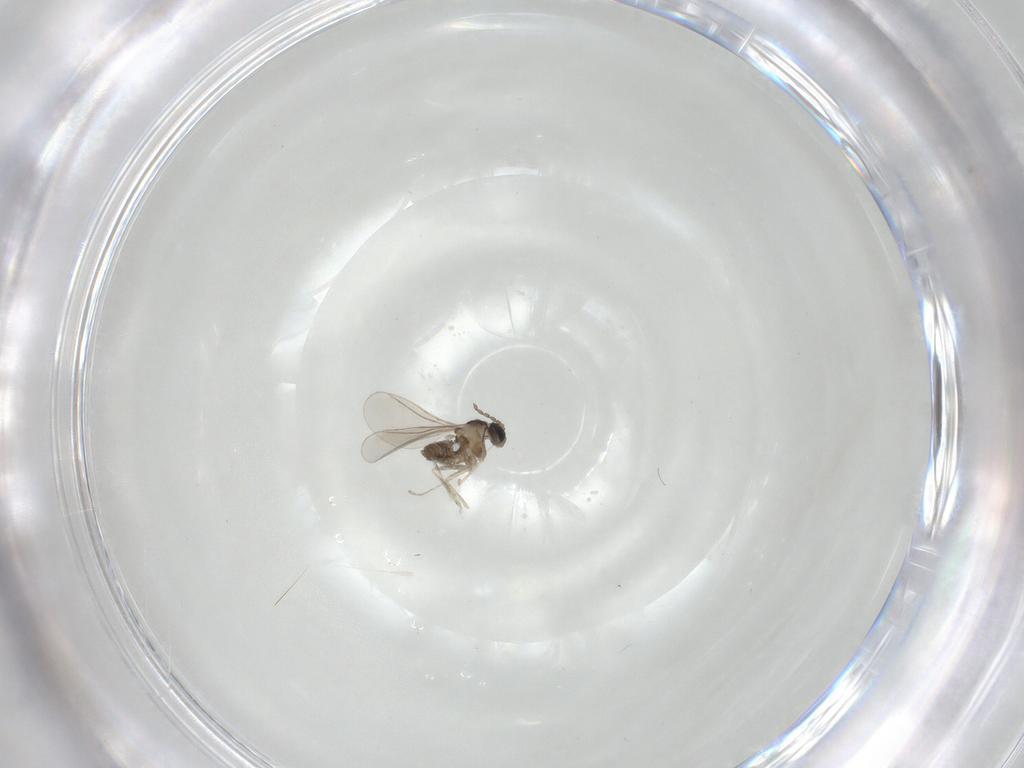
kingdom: Animalia
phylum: Arthropoda
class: Insecta
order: Diptera
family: Cecidomyiidae
